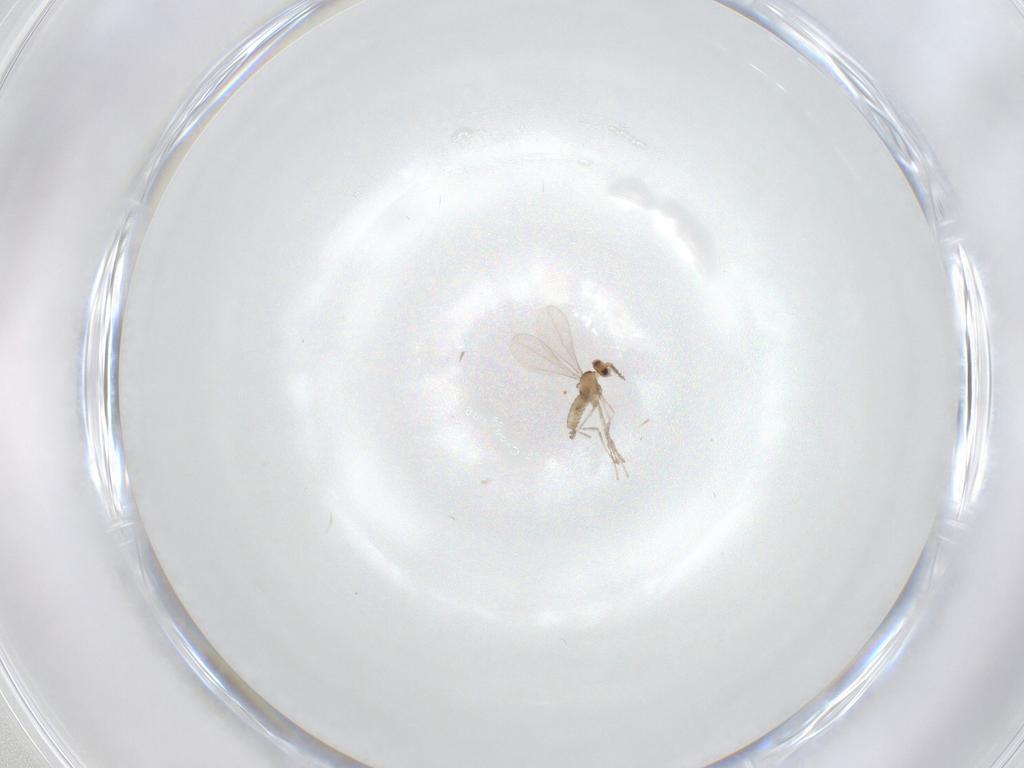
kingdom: Animalia
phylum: Arthropoda
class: Insecta
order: Diptera
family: Cecidomyiidae
